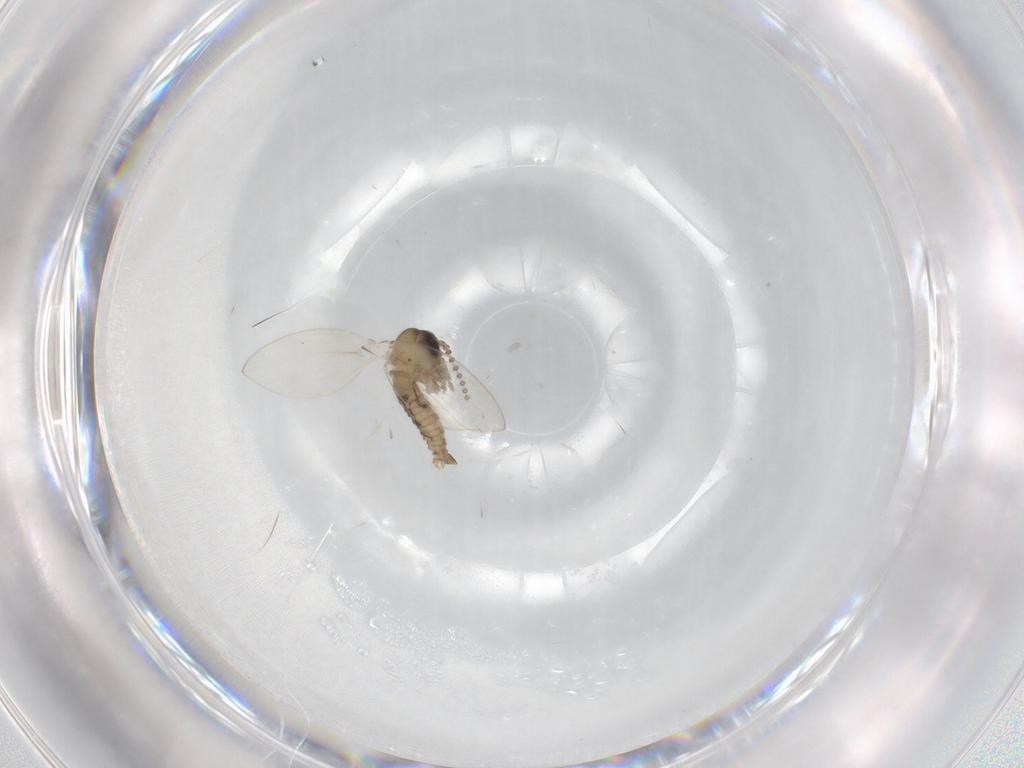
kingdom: Animalia
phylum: Arthropoda
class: Insecta
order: Diptera
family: Psychodidae
